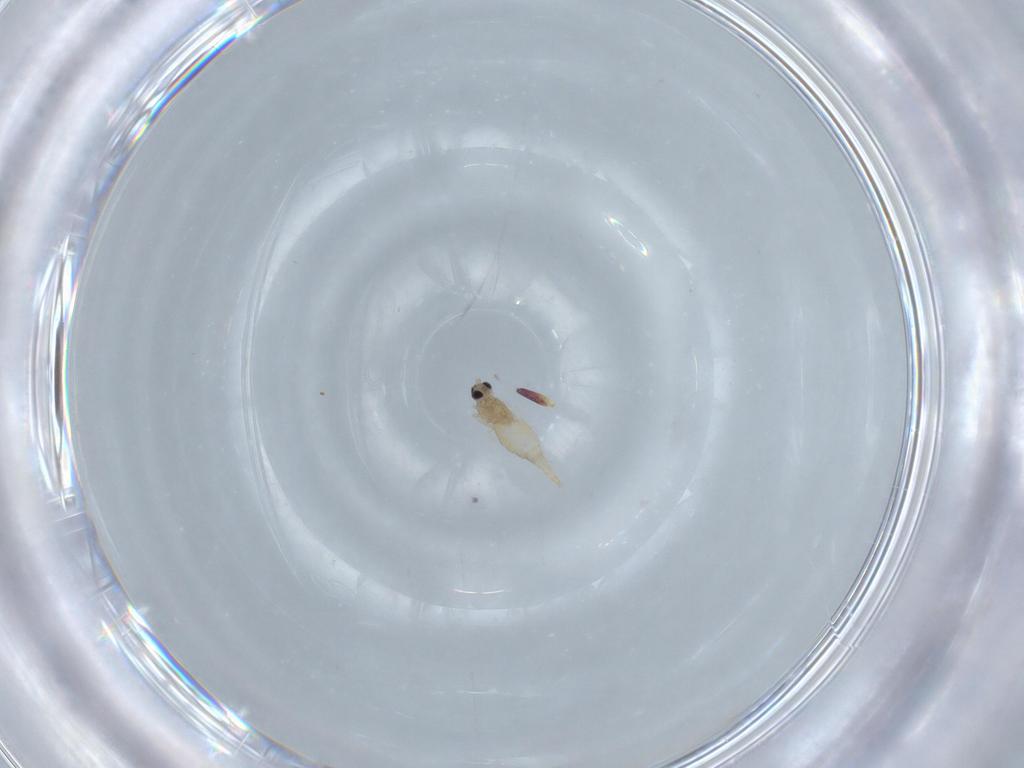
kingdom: Animalia
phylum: Arthropoda
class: Insecta
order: Diptera
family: Cecidomyiidae
